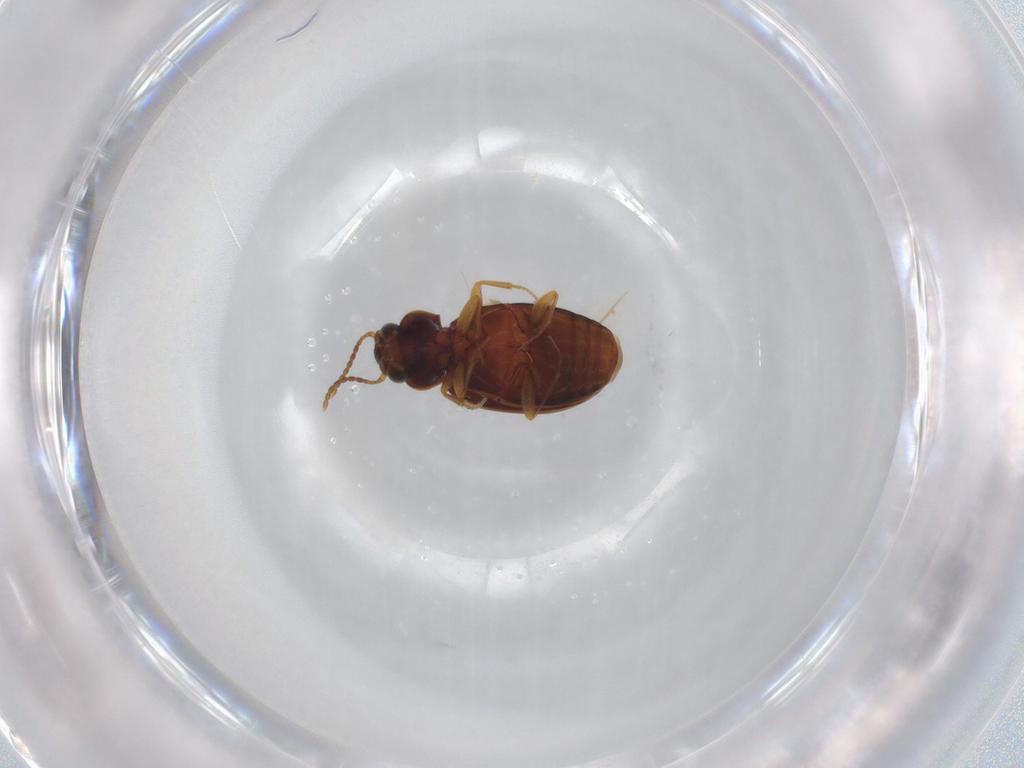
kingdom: Animalia
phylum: Arthropoda
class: Insecta
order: Coleoptera
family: Carabidae
